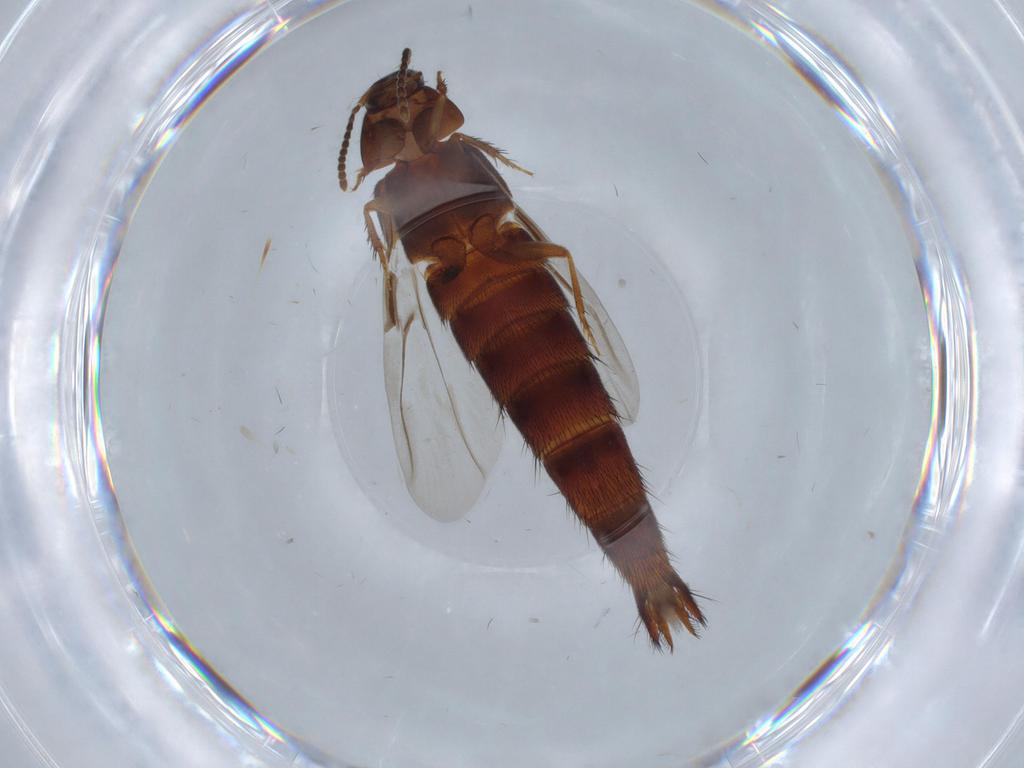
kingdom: Animalia
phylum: Arthropoda
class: Insecta
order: Coleoptera
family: Staphylinidae
